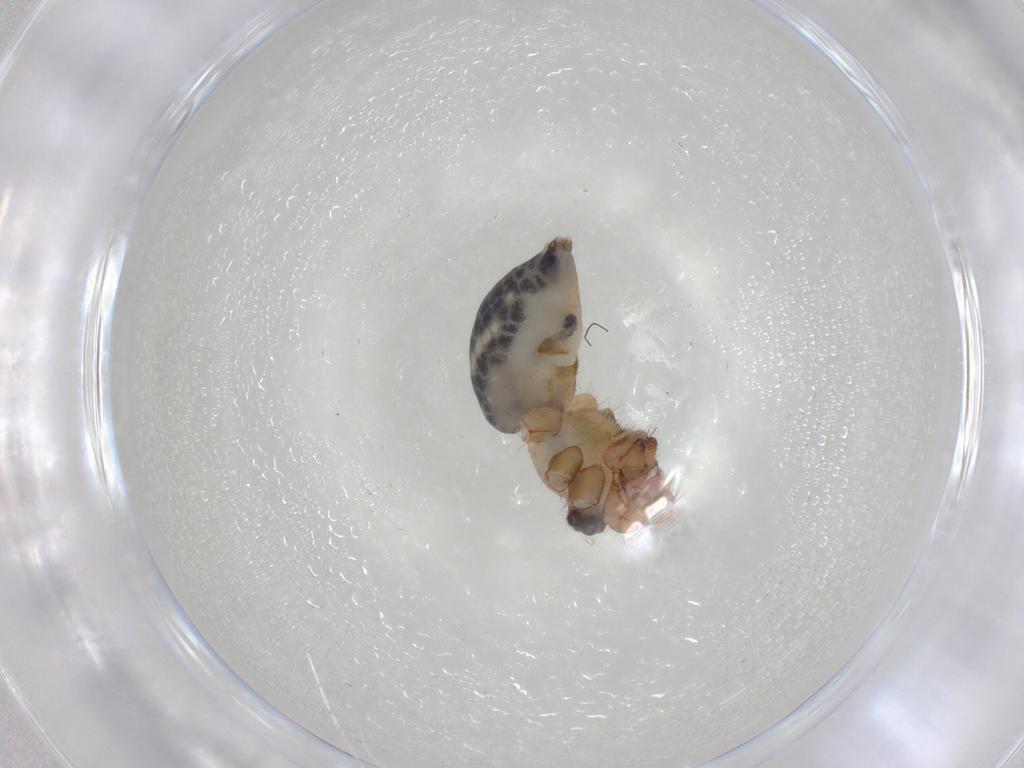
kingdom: Animalia
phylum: Arthropoda
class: Arachnida
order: Araneae
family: Pholcidae
